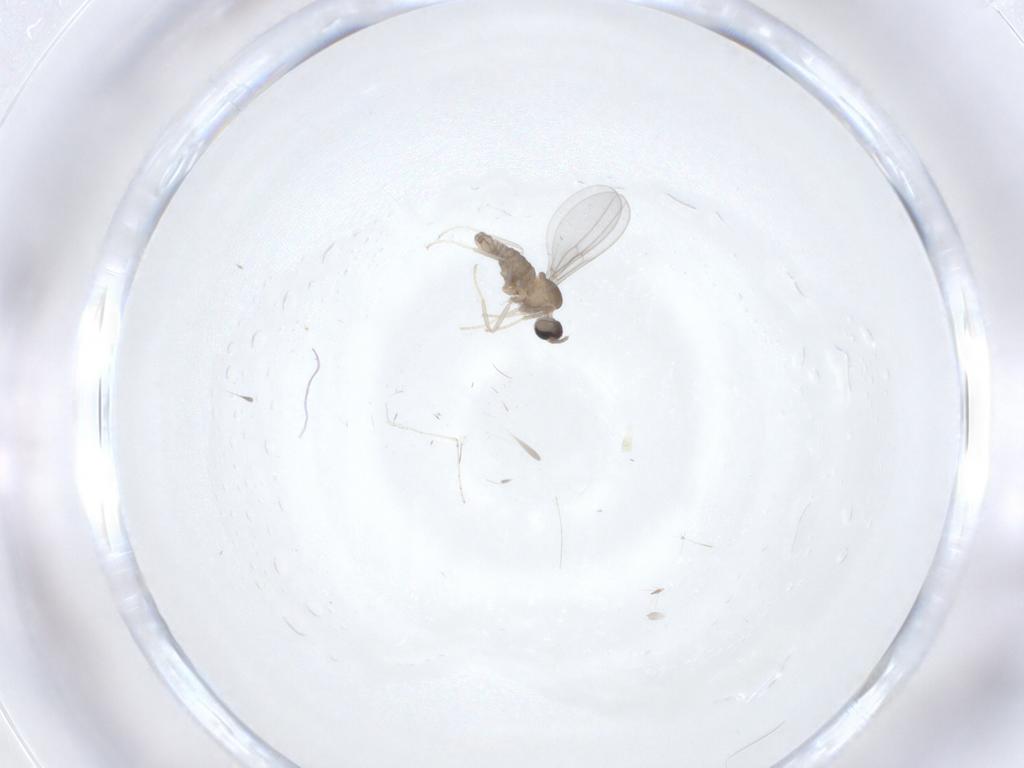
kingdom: Animalia
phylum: Arthropoda
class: Insecta
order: Diptera
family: Cecidomyiidae
